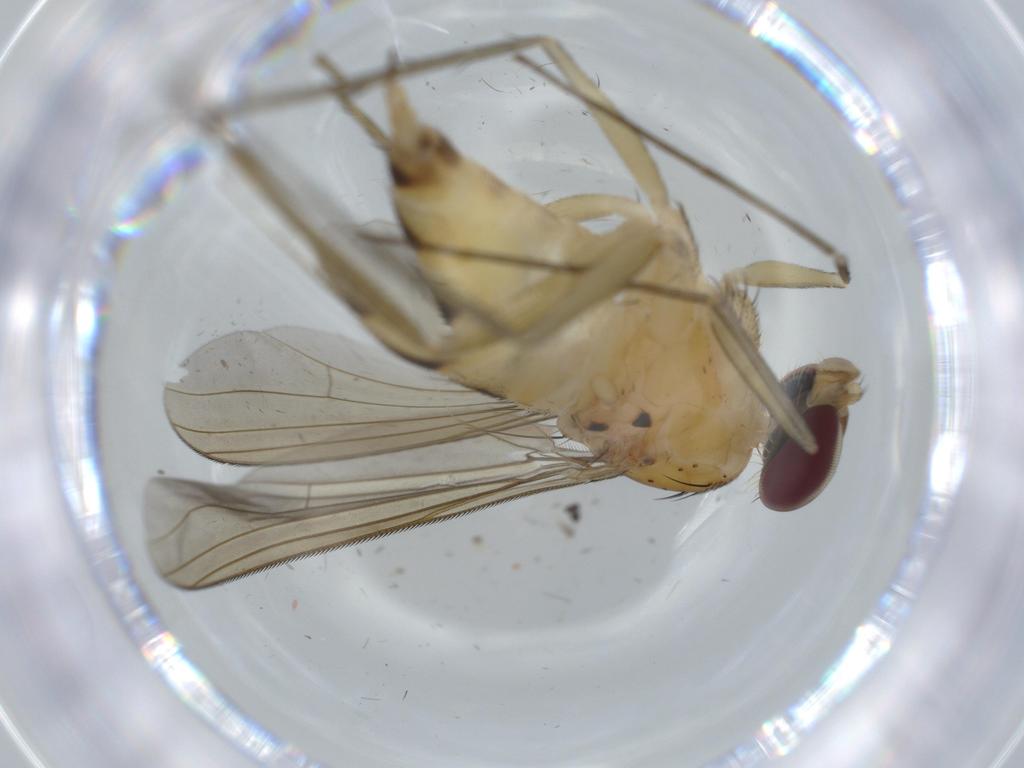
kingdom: Animalia
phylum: Arthropoda
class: Insecta
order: Diptera
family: Dolichopodidae
